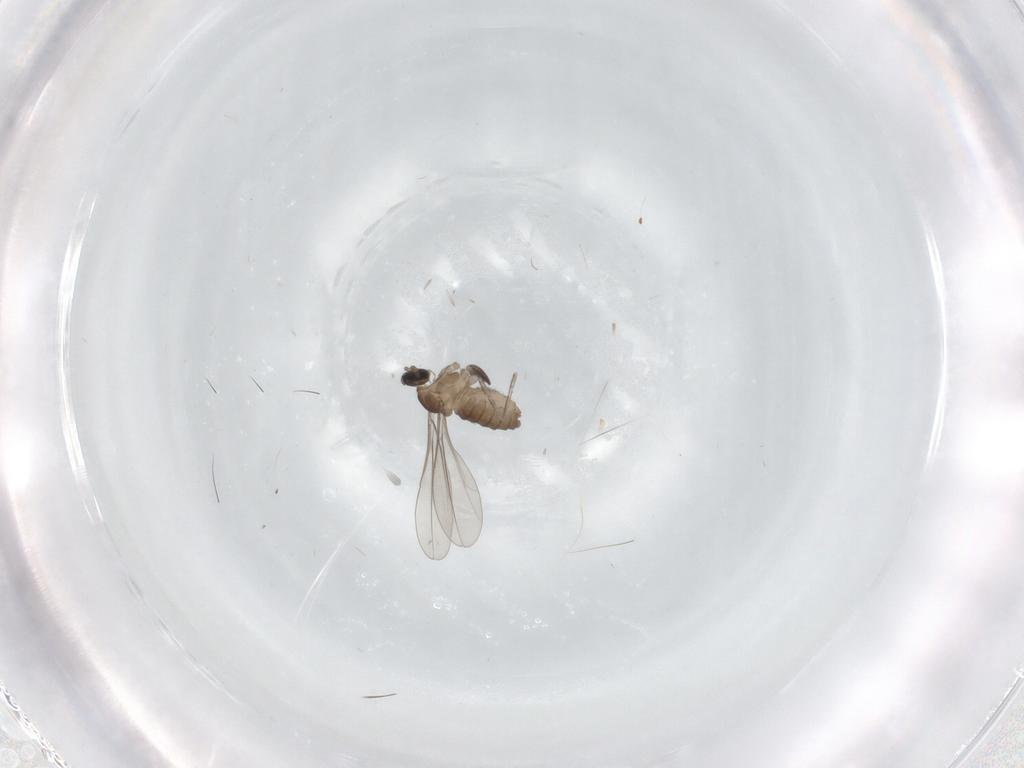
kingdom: Animalia
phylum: Arthropoda
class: Insecta
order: Diptera
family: Cecidomyiidae
